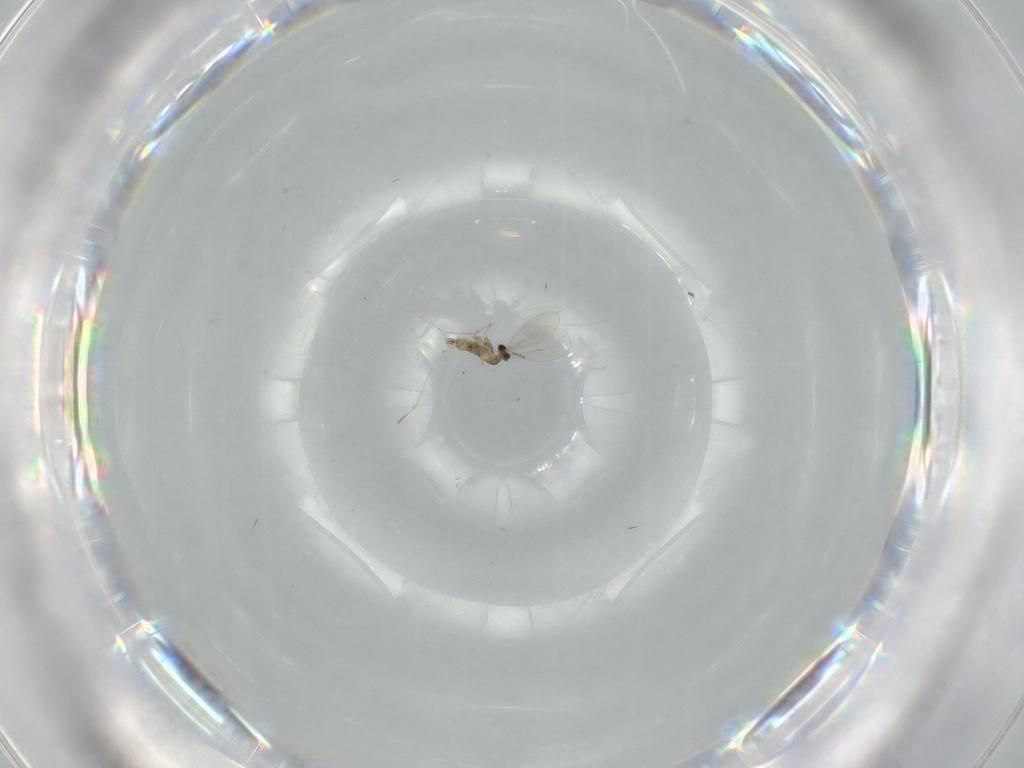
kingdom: Animalia
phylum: Arthropoda
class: Insecta
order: Diptera
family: Cecidomyiidae
